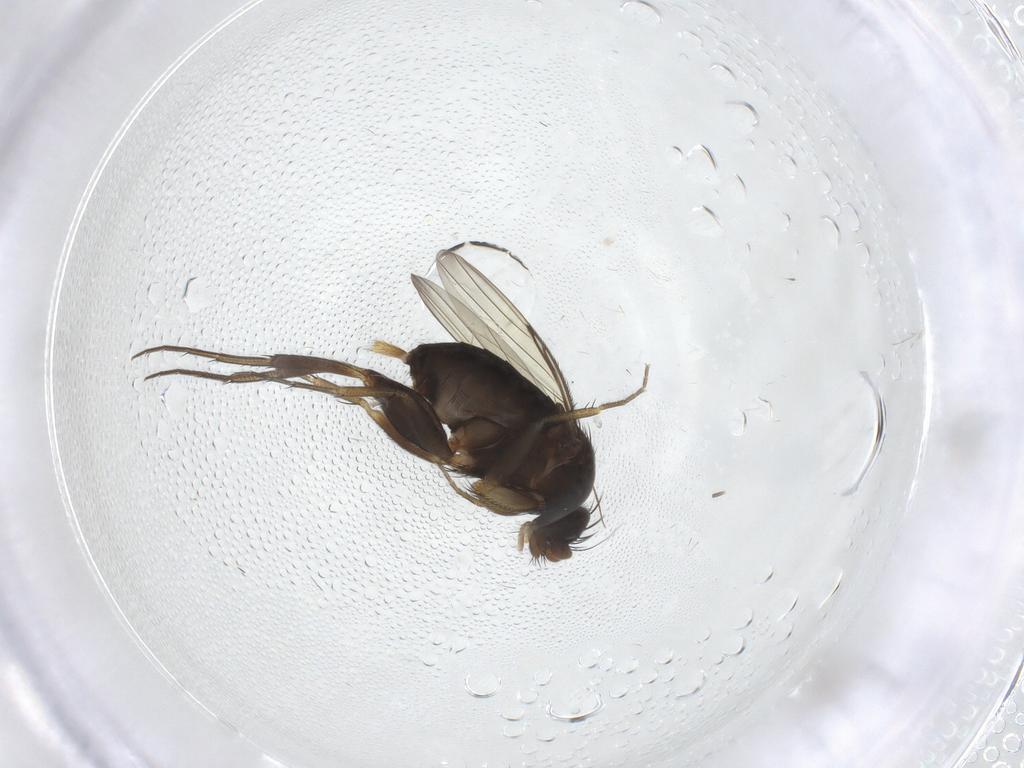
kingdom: Animalia
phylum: Arthropoda
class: Insecta
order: Diptera
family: Phoridae
